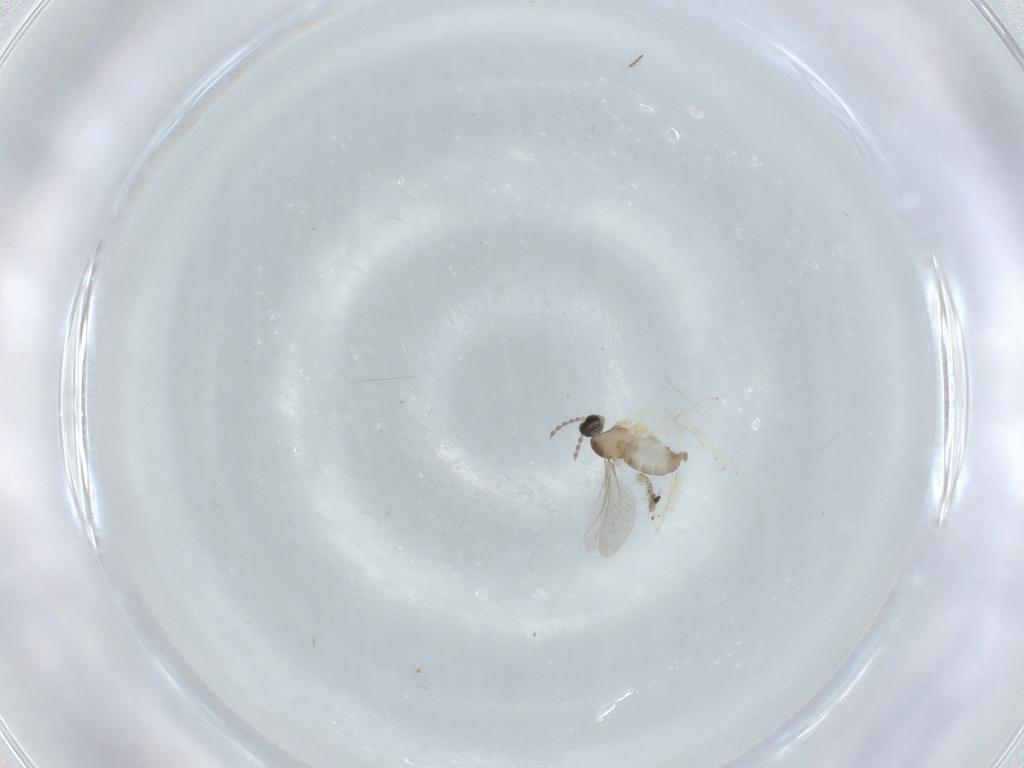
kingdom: Animalia
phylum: Arthropoda
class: Insecta
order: Diptera
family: Cecidomyiidae
